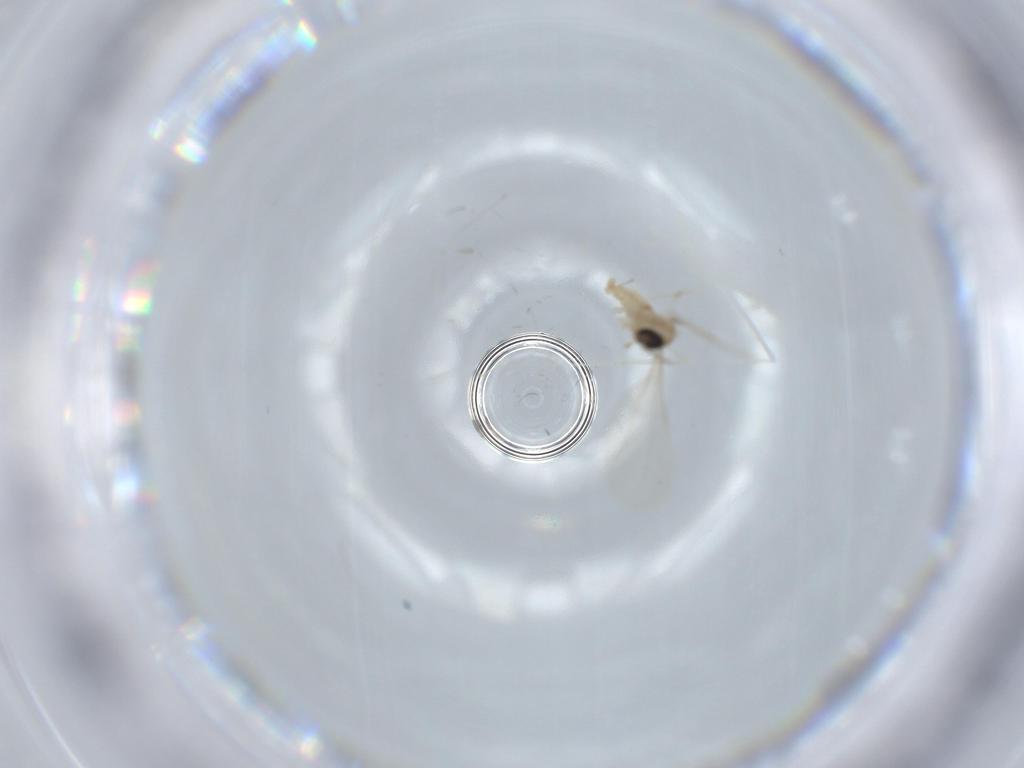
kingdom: Animalia
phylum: Arthropoda
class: Insecta
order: Diptera
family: Cecidomyiidae
